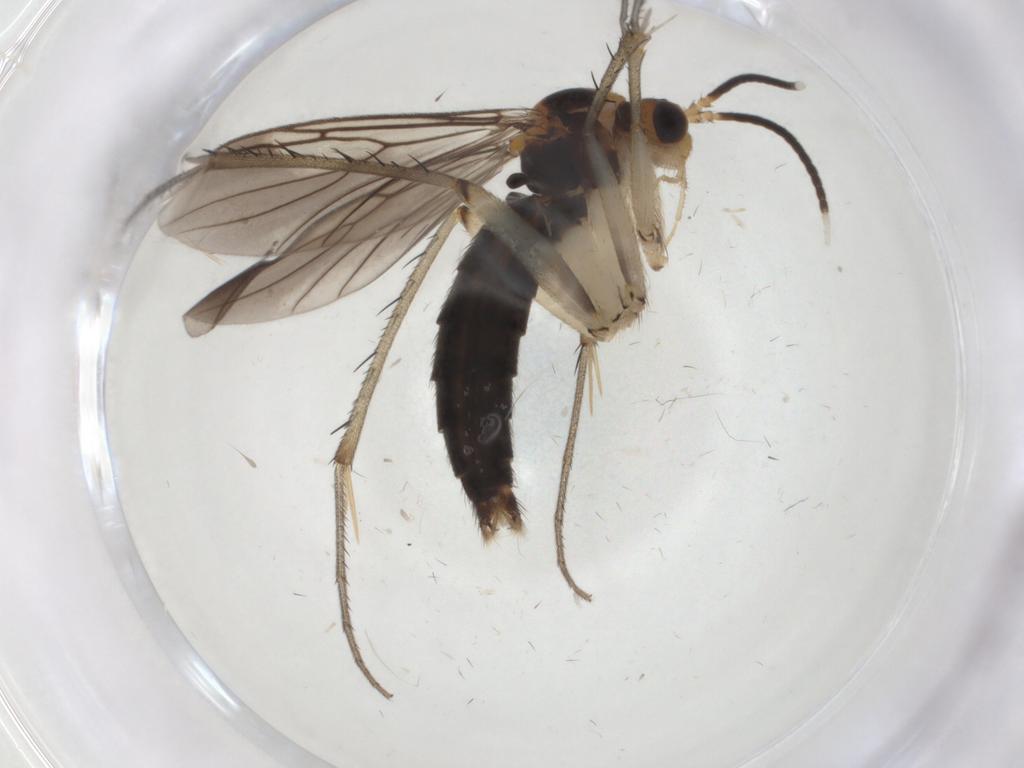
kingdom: Animalia
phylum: Arthropoda
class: Insecta
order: Diptera
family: Sphaeroceridae
